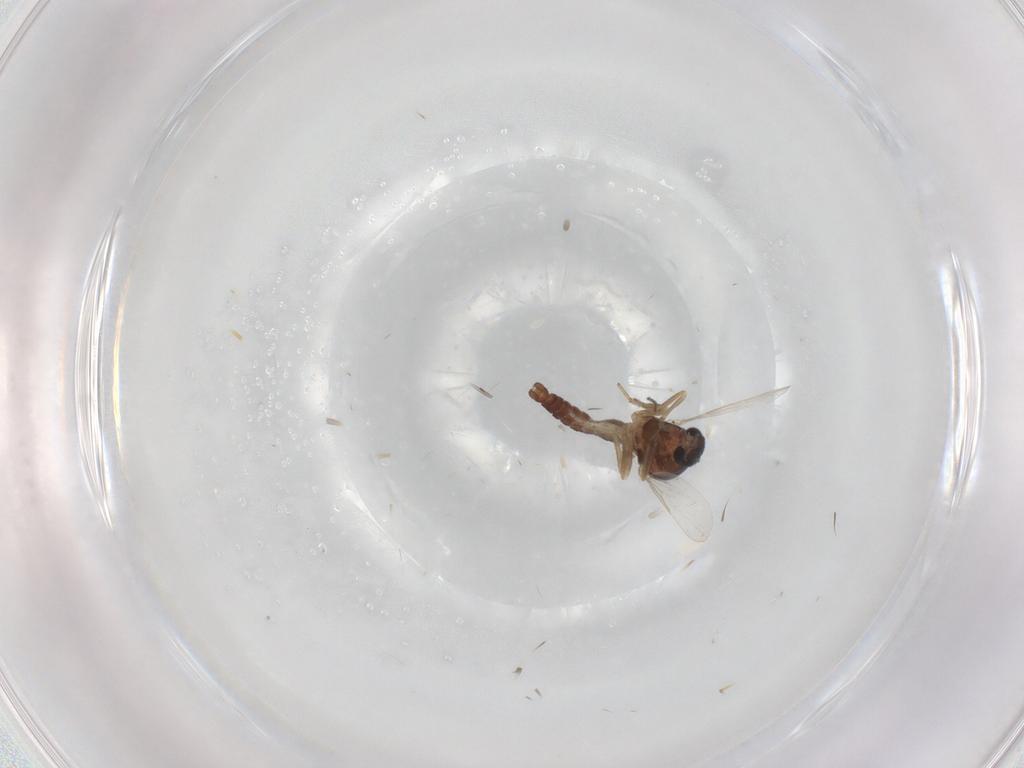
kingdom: Animalia
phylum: Arthropoda
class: Insecta
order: Diptera
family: Ceratopogonidae
